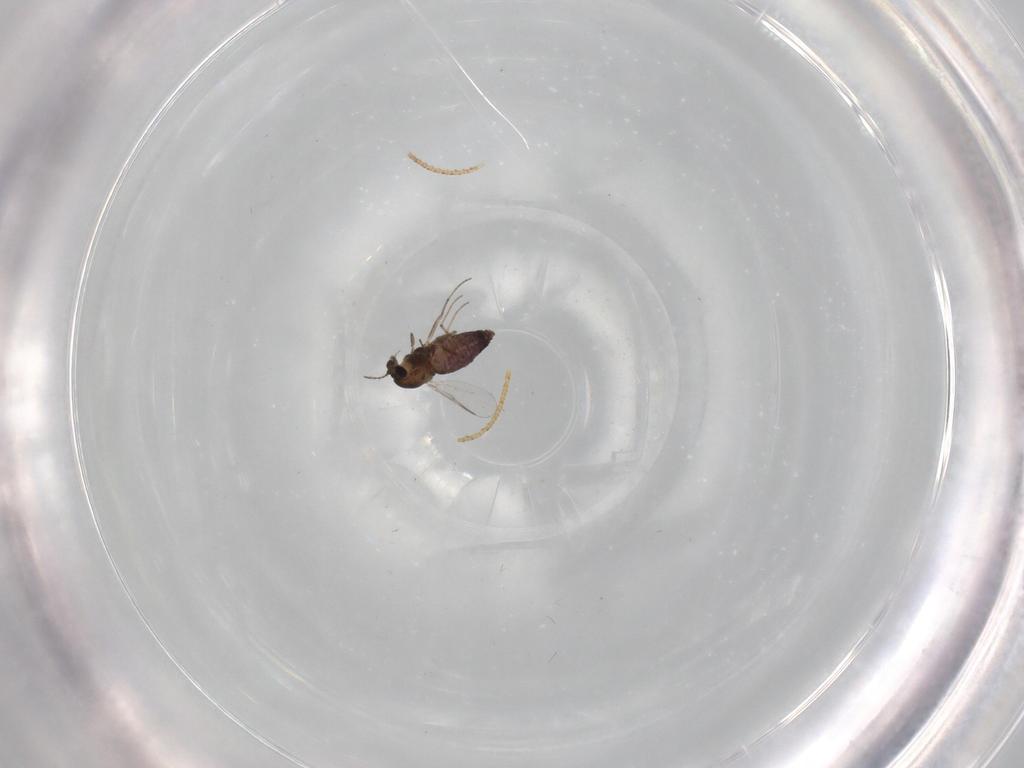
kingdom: Animalia
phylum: Arthropoda
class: Insecta
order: Diptera
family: Chironomidae
